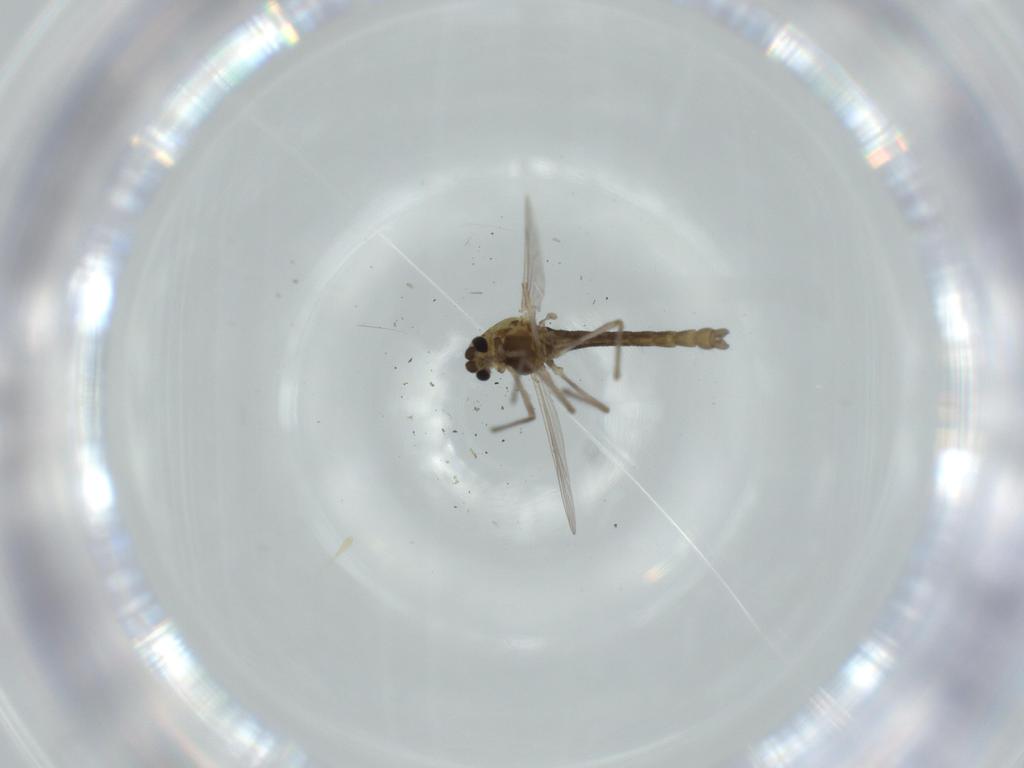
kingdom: Animalia
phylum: Arthropoda
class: Insecta
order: Diptera
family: Chironomidae
